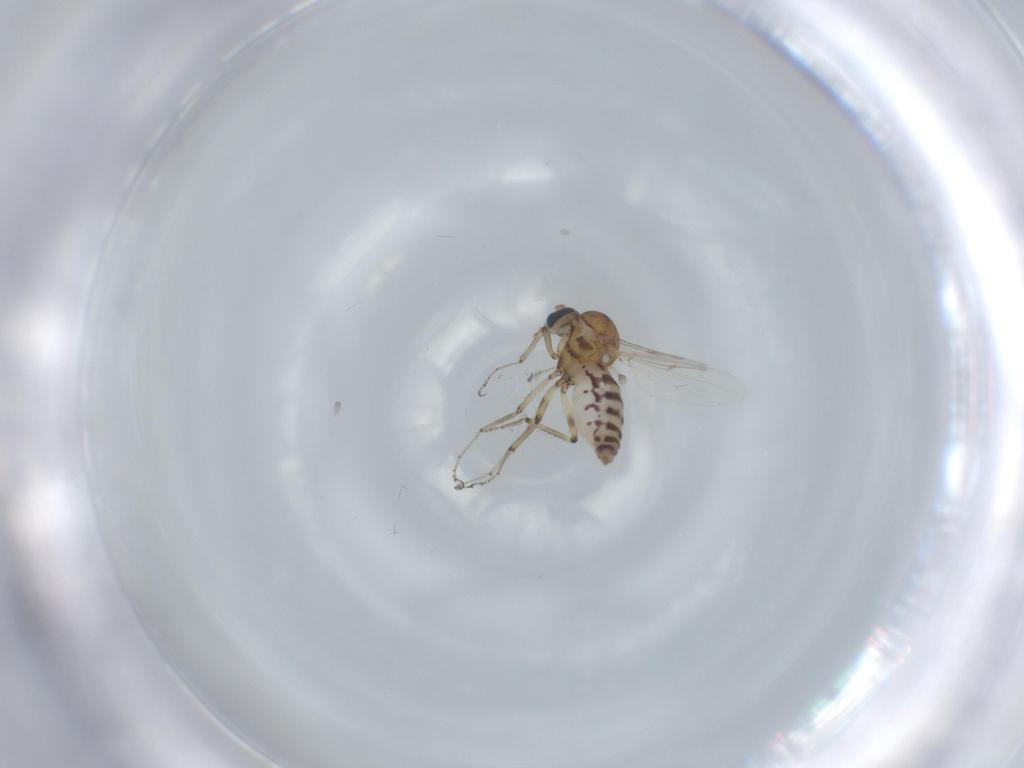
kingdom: Animalia
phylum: Arthropoda
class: Insecta
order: Diptera
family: Ceratopogonidae
